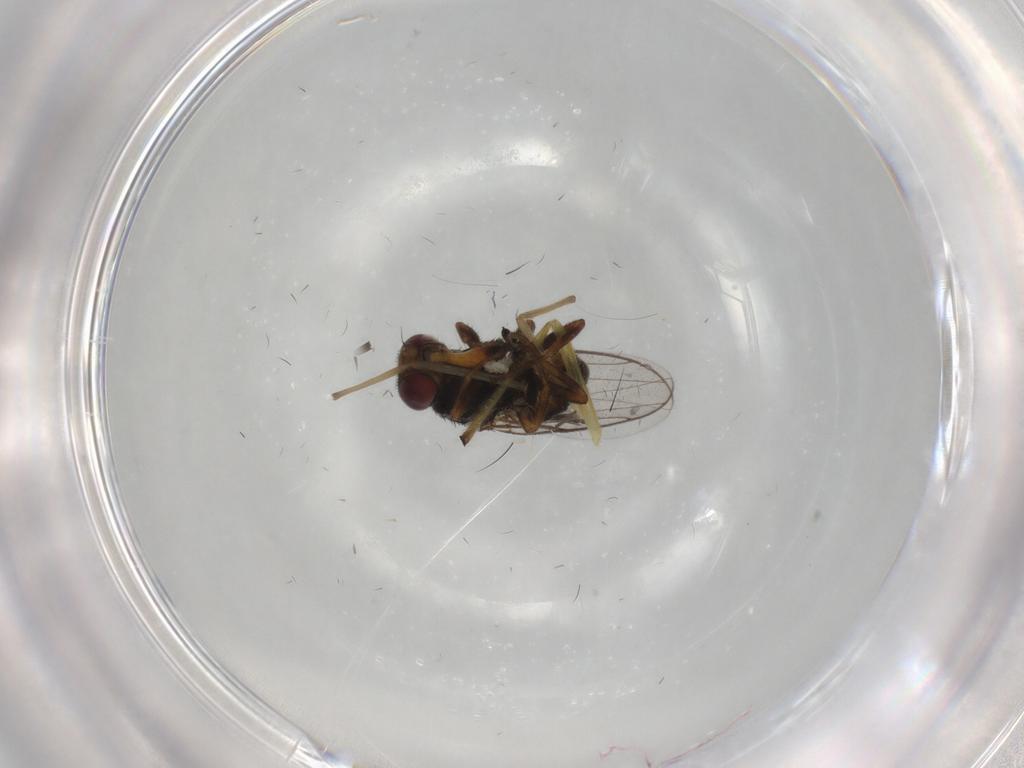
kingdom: Animalia
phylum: Arthropoda
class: Insecta
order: Diptera
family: Chloropidae
